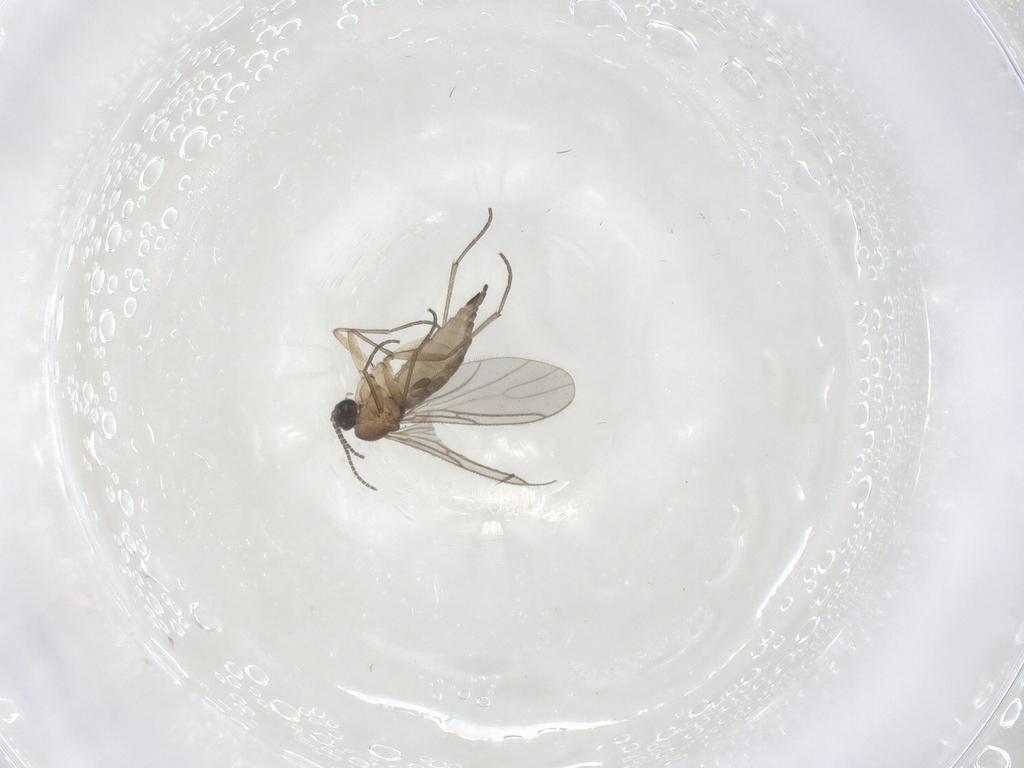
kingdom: Animalia
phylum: Arthropoda
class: Insecta
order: Diptera
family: Sciaridae
